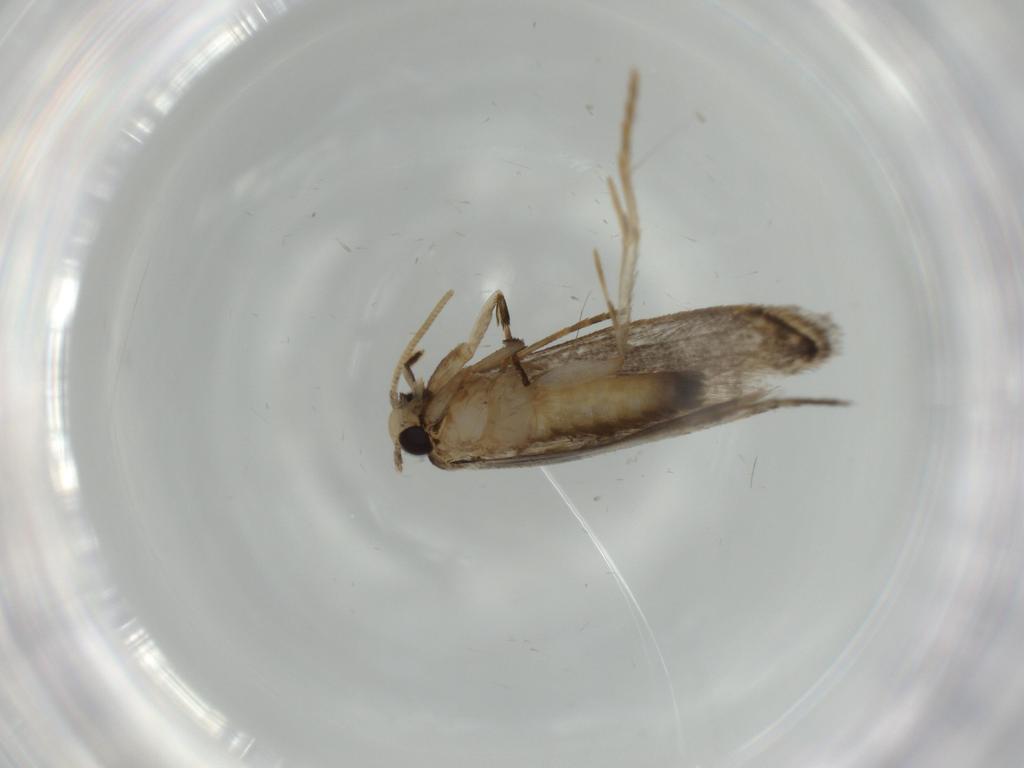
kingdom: Animalia
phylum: Arthropoda
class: Insecta
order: Lepidoptera
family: Tineidae
